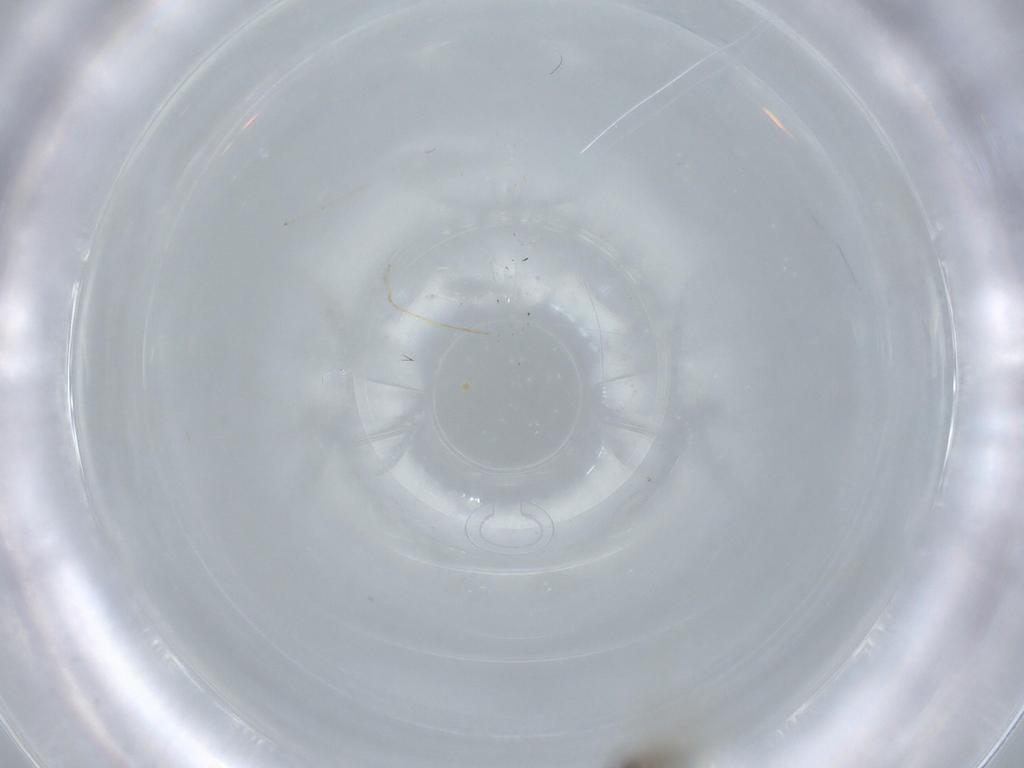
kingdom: Animalia
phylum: Arthropoda
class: Insecta
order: Diptera
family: Cecidomyiidae
